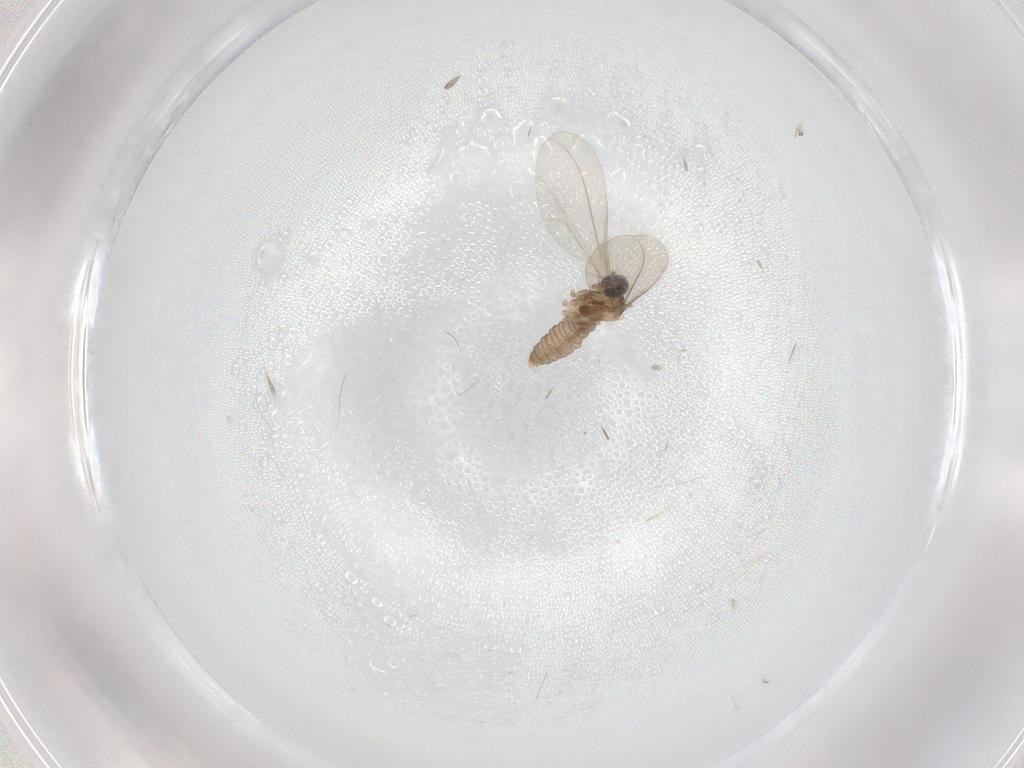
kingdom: Animalia
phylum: Arthropoda
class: Insecta
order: Diptera
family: Cecidomyiidae
